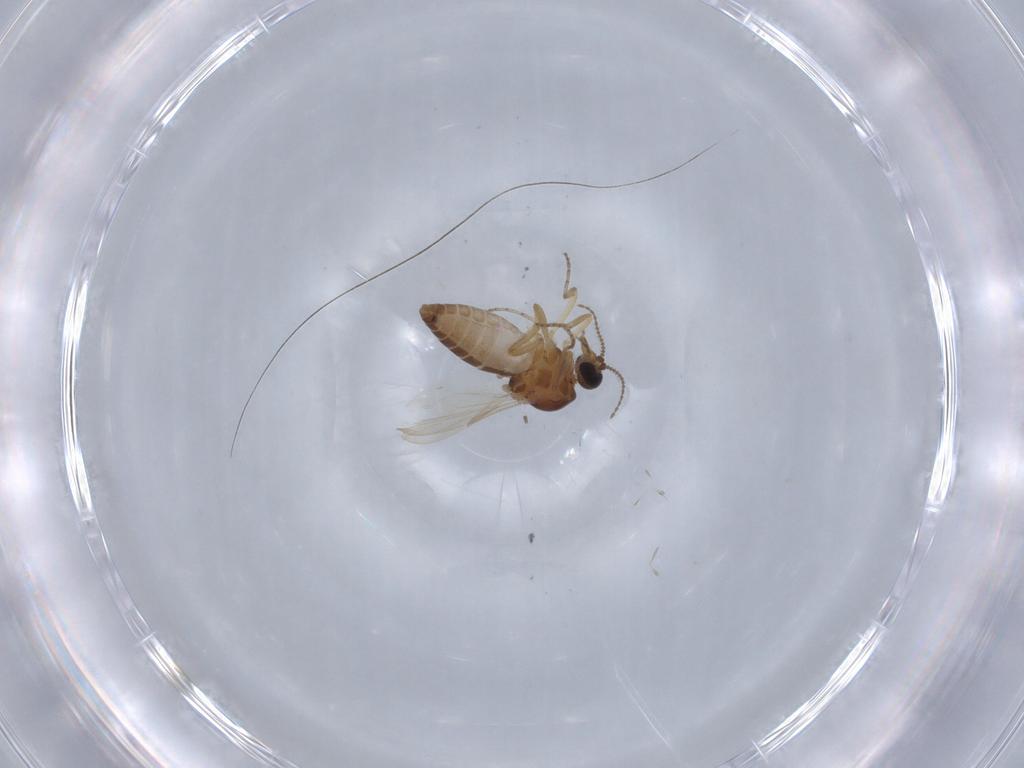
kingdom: Animalia
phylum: Arthropoda
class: Insecta
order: Diptera
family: Ceratopogonidae
